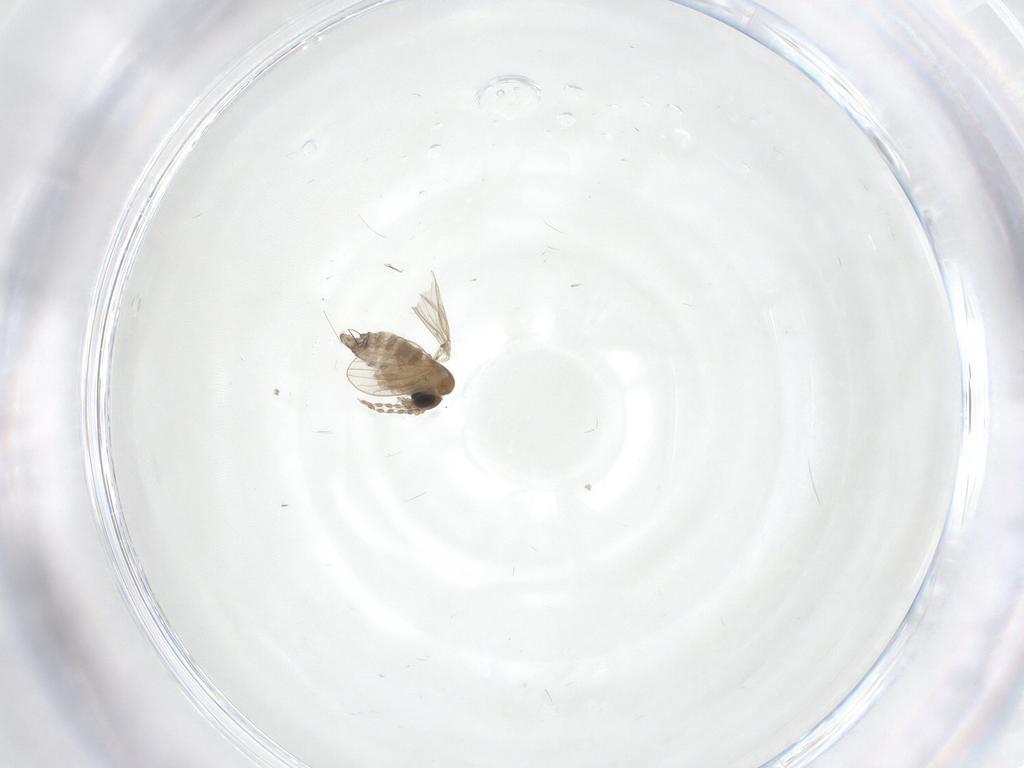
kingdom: Animalia
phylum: Arthropoda
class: Insecta
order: Diptera
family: Psychodidae
